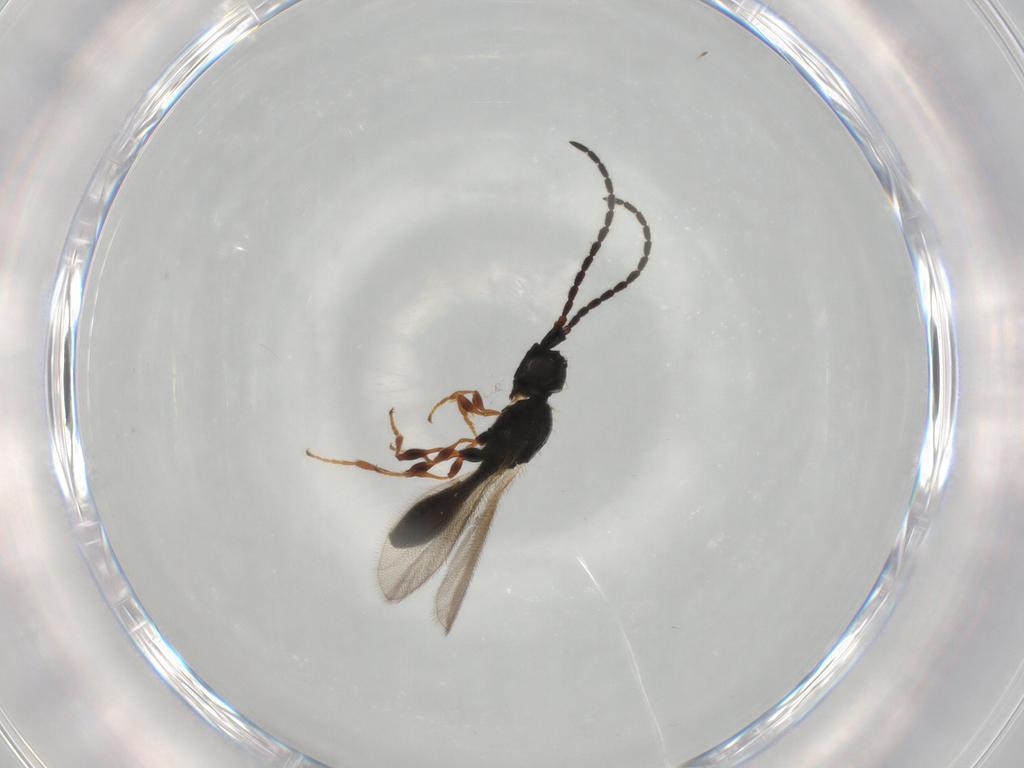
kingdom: Animalia
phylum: Arthropoda
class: Insecta
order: Hymenoptera
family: Diapriidae
